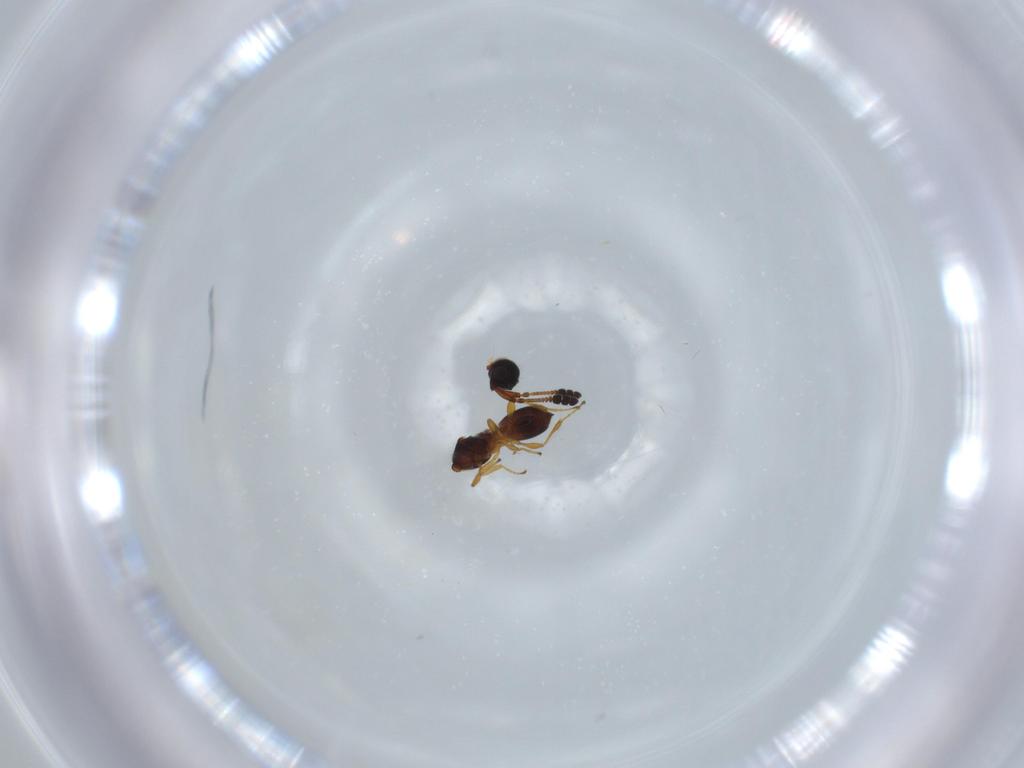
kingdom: Animalia
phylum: Arthropoda
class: Insecta
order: Hymenoptera
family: Diapriidae
